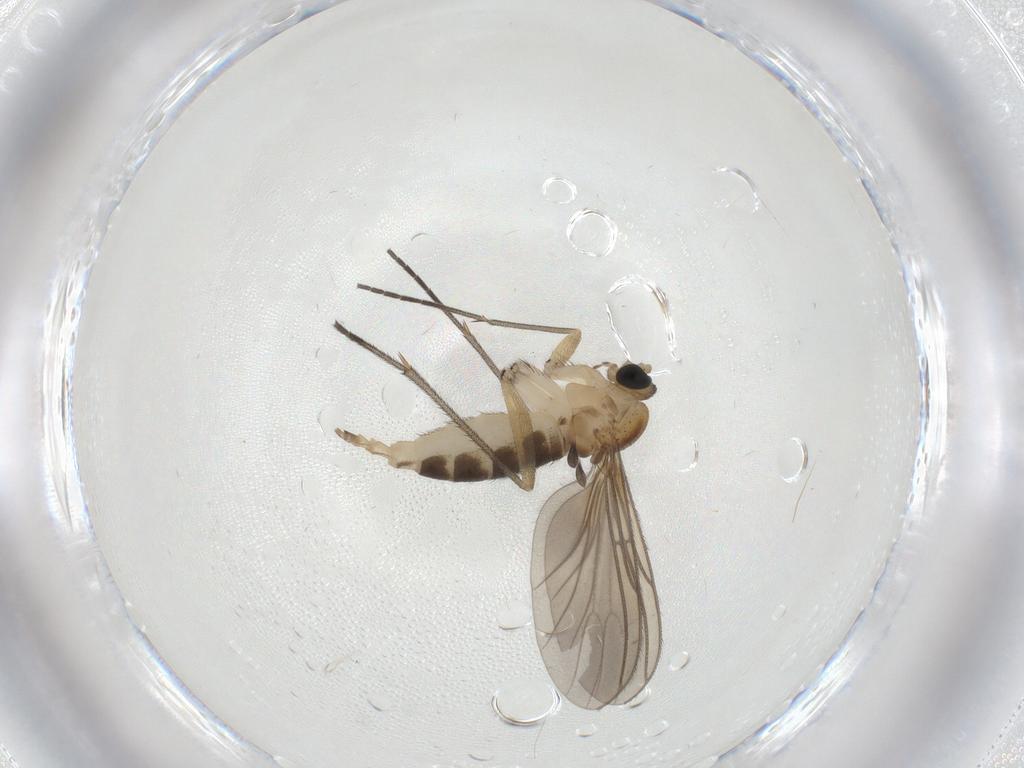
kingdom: Animalia
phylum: Arthropoda
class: Insecta
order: Diptera
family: Sciaridae
